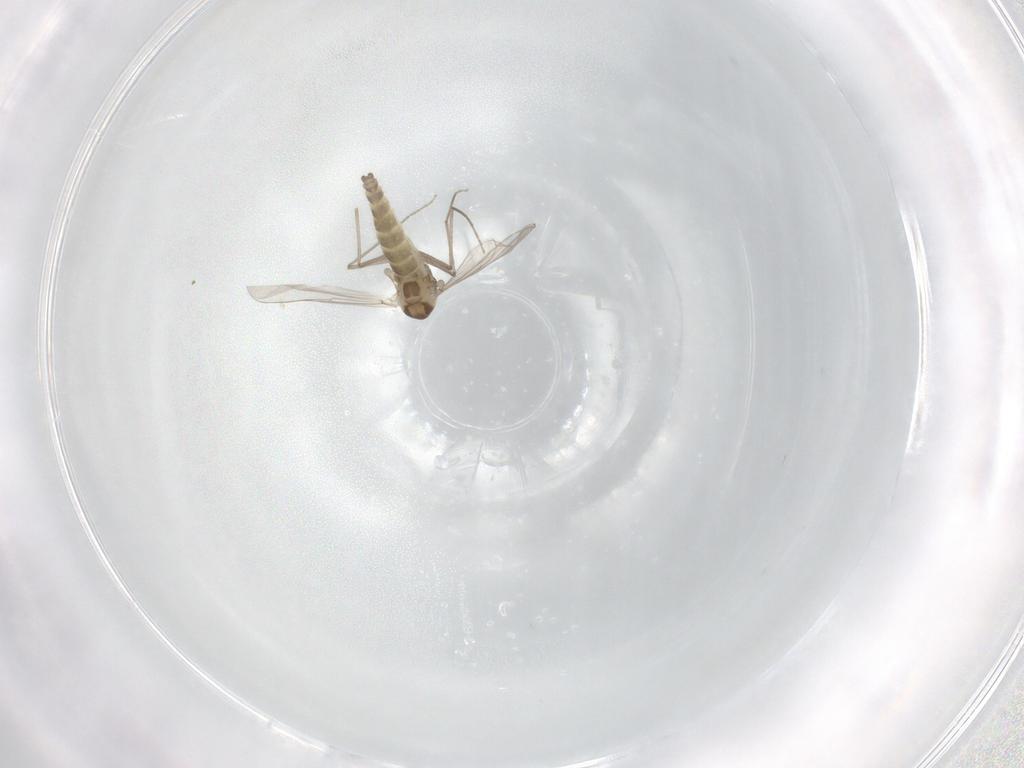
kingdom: Animalia
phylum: Arthropoda
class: Insecta
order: Diptera
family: Chironomidae
